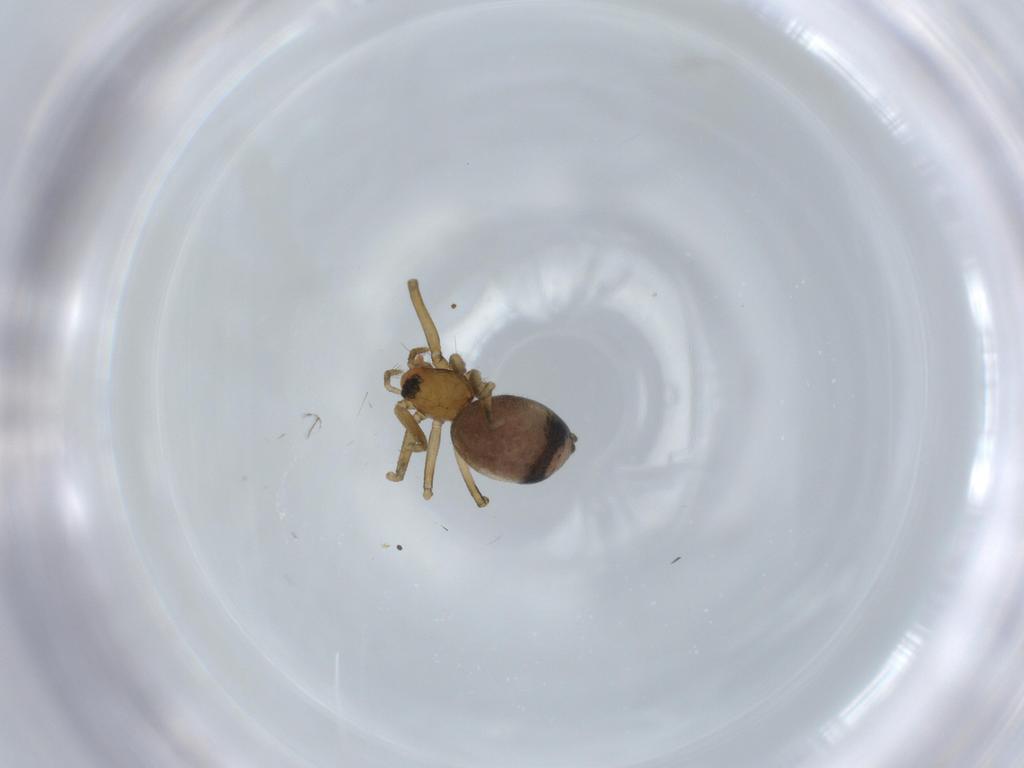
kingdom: Animalia
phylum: Arthropoda
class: Arachnida
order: Araneae
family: Linyphiidae
